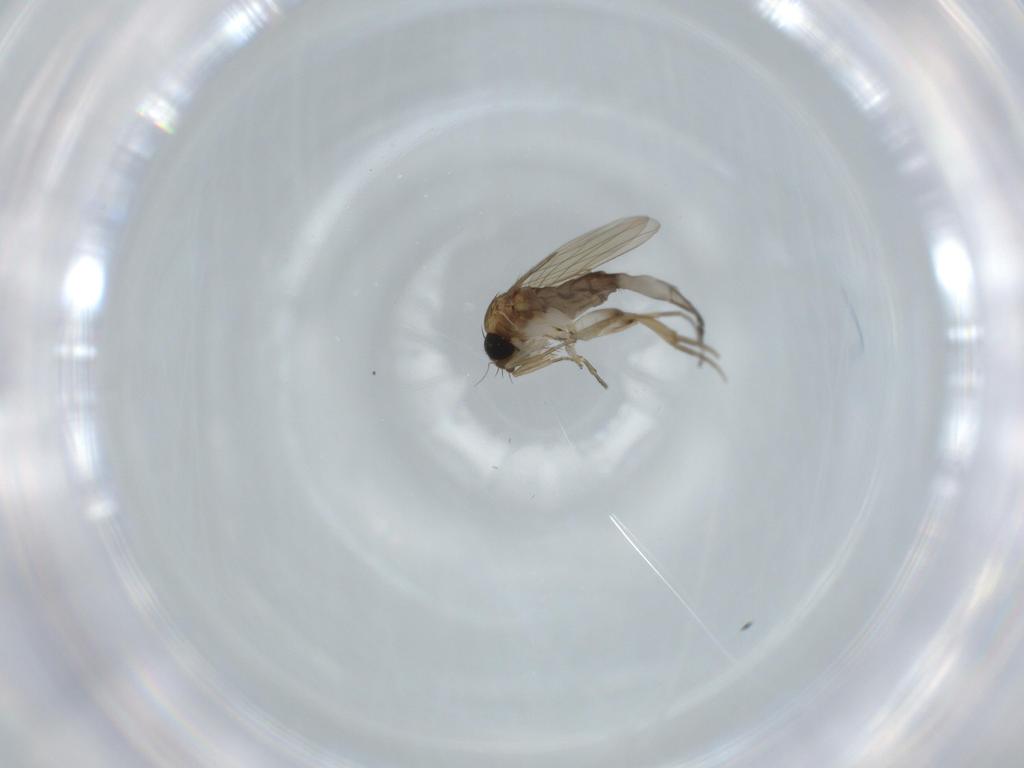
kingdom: Animalia
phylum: Arthropoda
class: Insecta
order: Diptera
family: Phoridae
